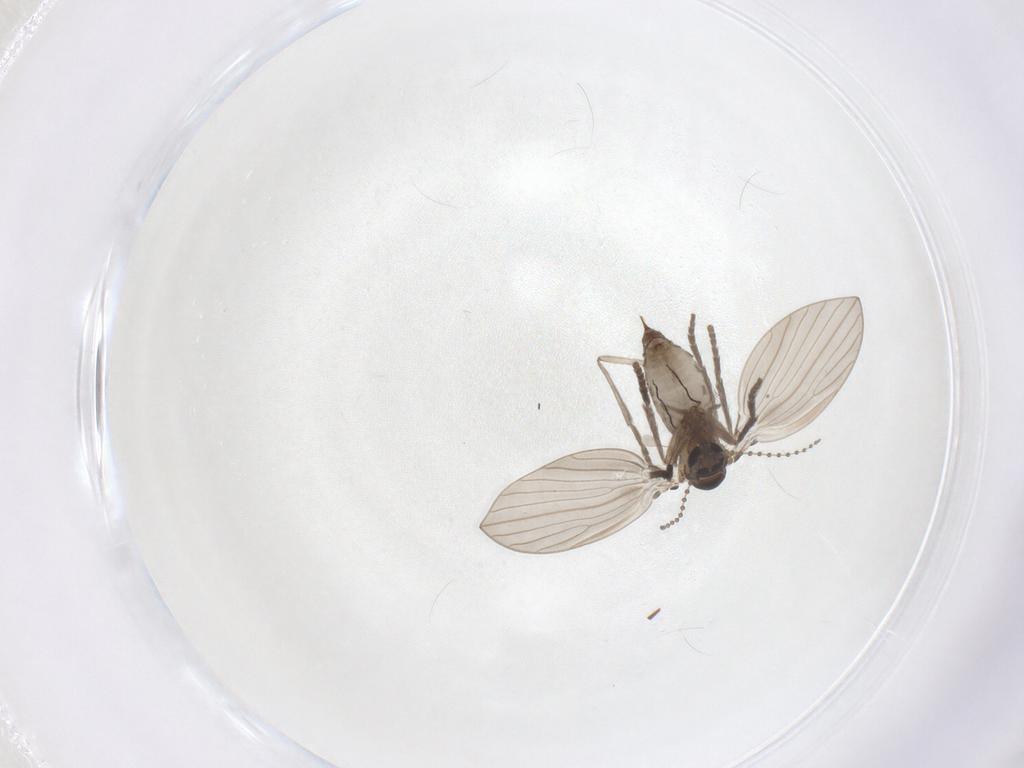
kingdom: Animalia
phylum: Arthropoda
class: Insecta
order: Diptera
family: Psychodidae
